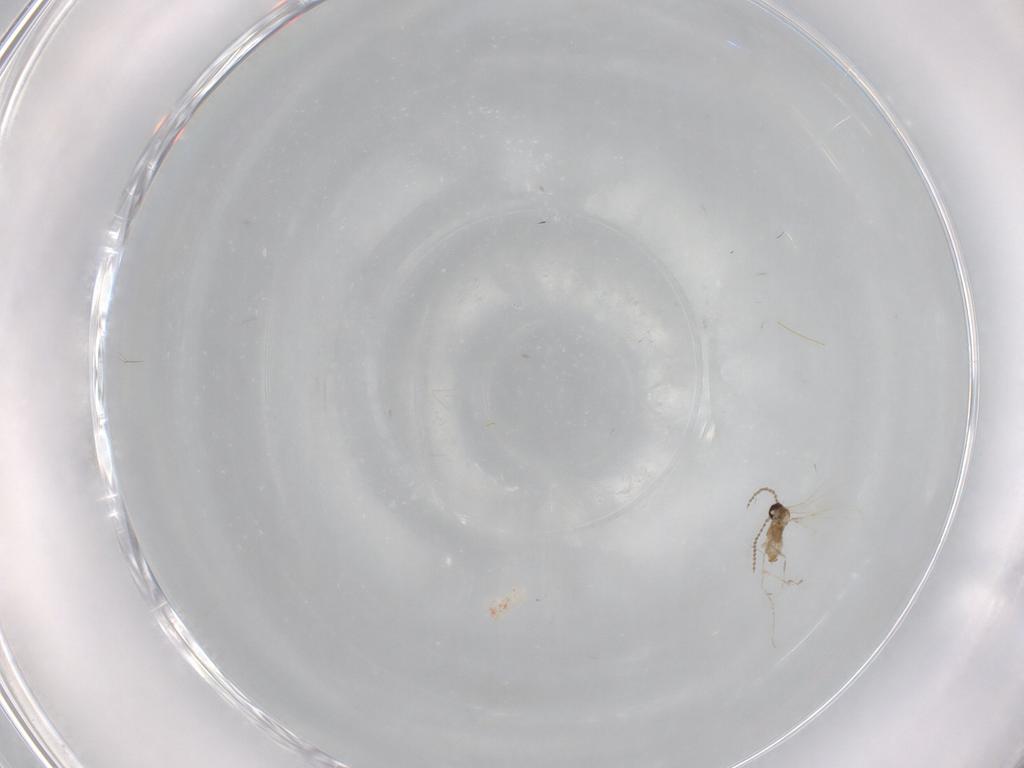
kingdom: Animalia
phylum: Arthropoda
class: Insecta
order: Diptera
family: Cecidomyiidae
